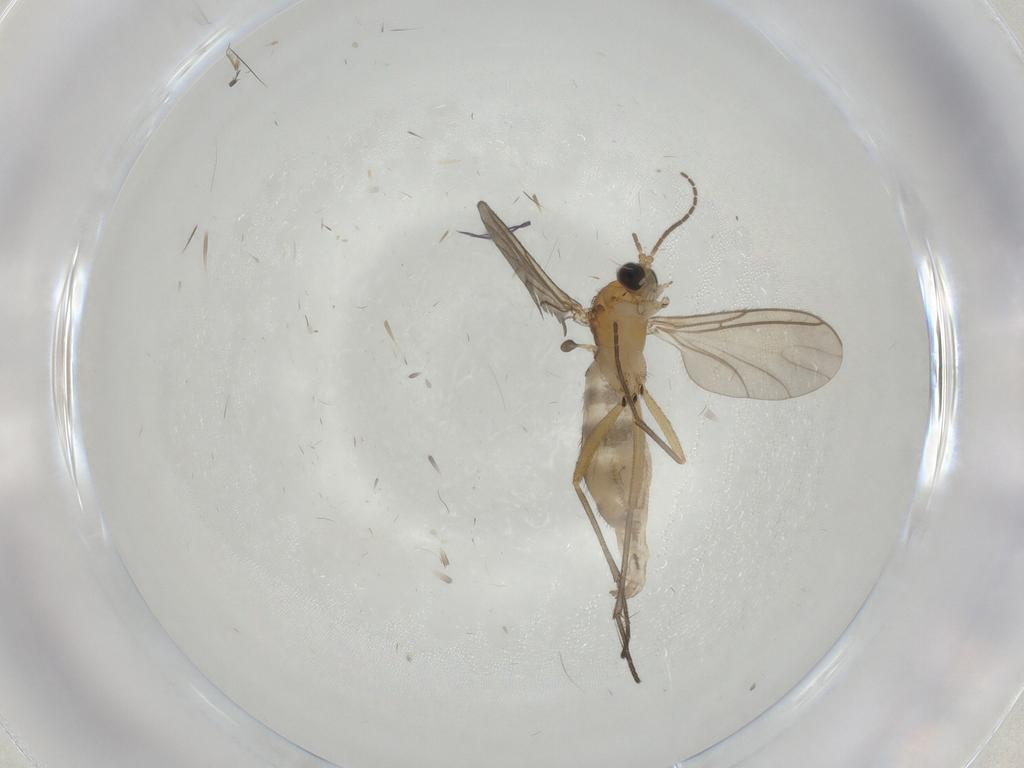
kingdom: Animalia
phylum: Arthropoda
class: Insecta
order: Diptera
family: Sciaridae
